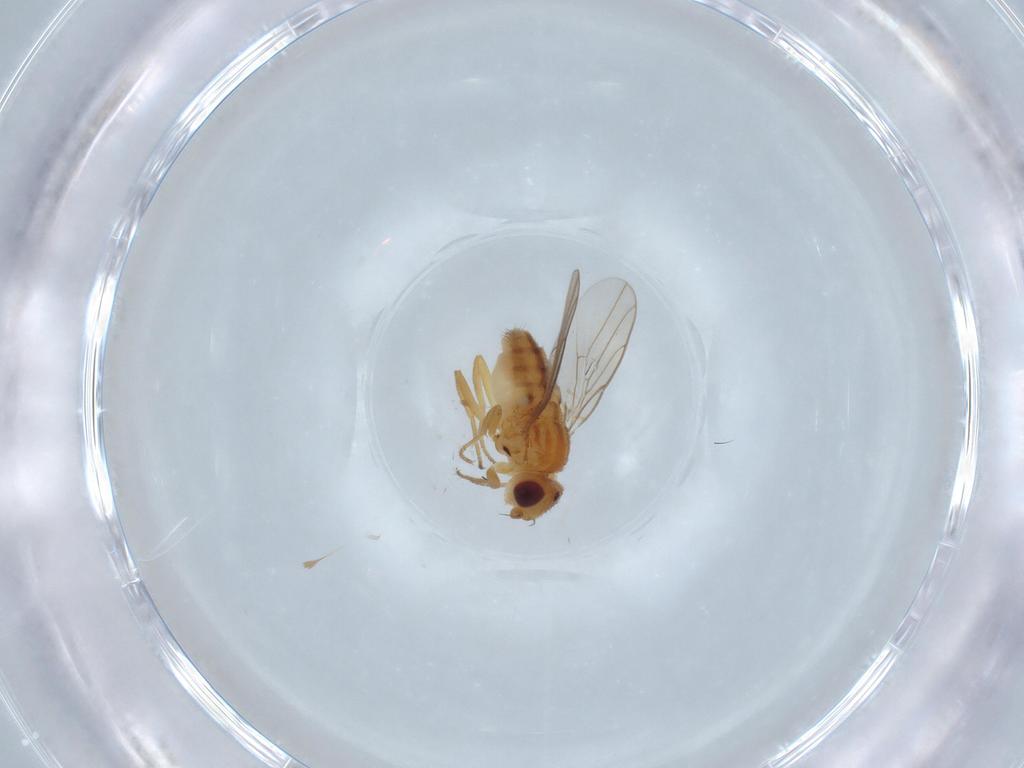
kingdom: Animalia
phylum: Arthropoda
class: Insecta
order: Diptera
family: Muscidae
